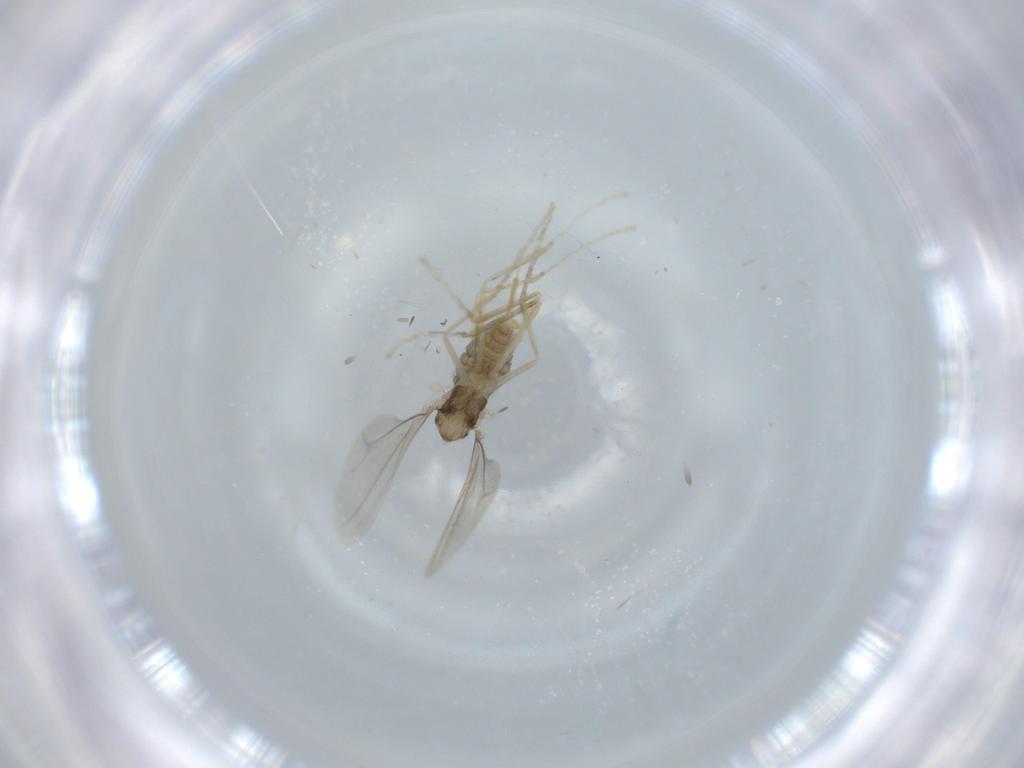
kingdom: Animalia
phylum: Arthropoda
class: Insecta
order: Diptera
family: Cecidomyiidae
